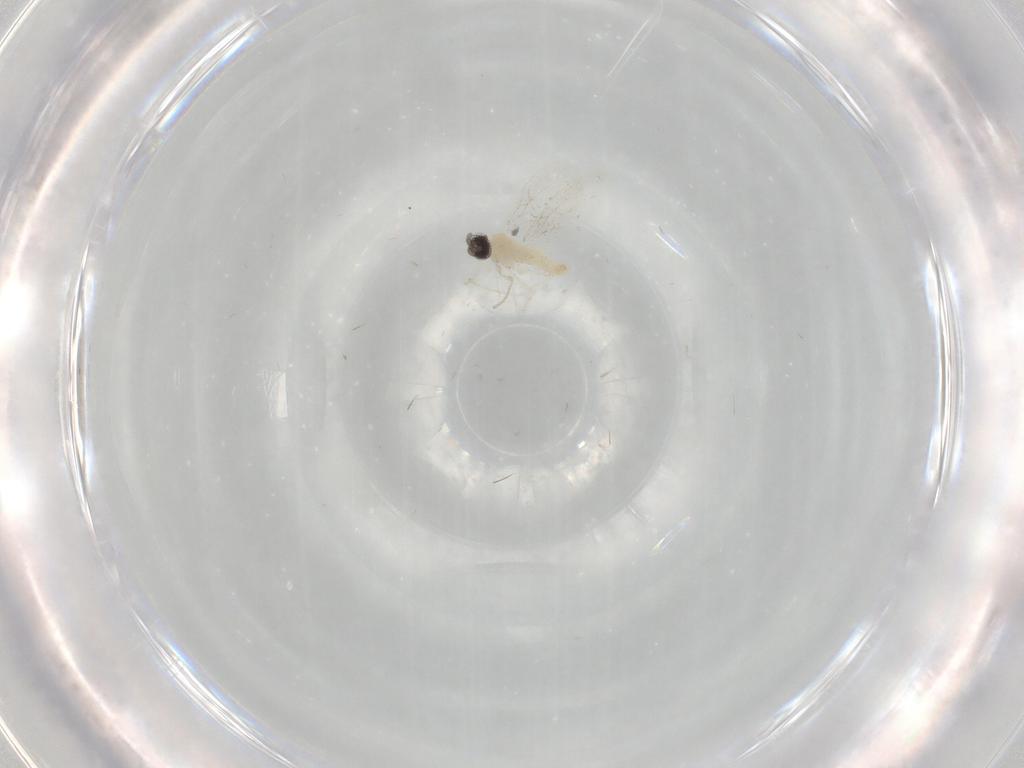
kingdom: Animalia
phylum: Arthropoda
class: Insecta
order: Diptera
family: Cecidomyiidae
